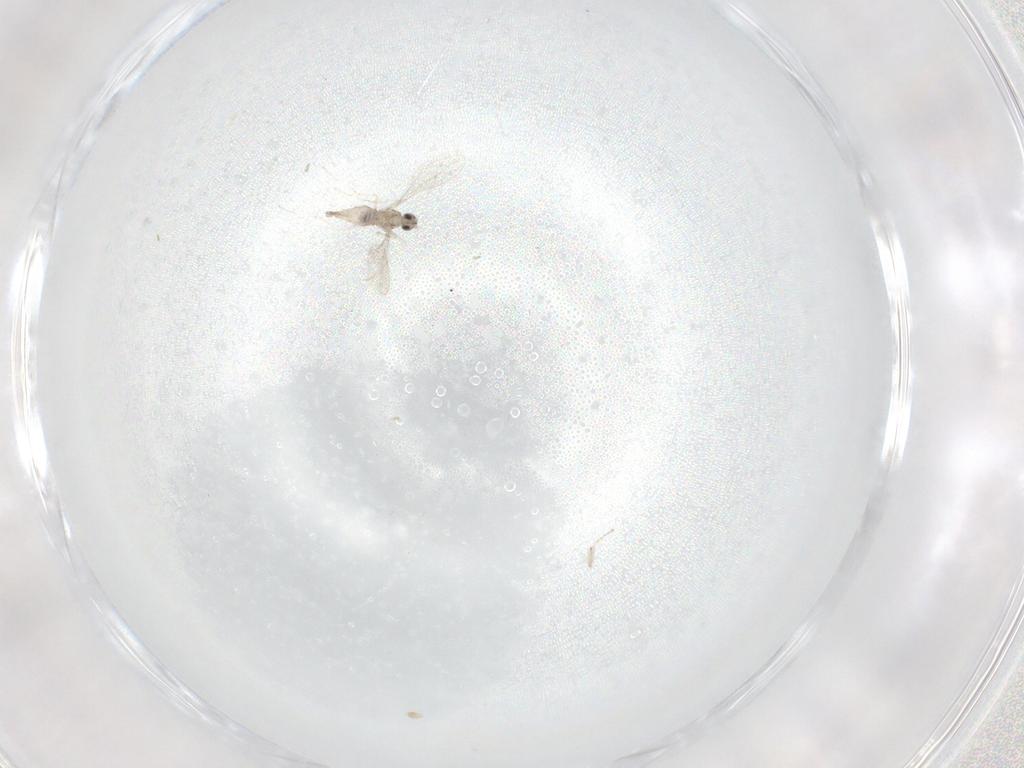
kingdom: Animalia
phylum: Arthropoda
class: Insecta
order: Diptera
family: Cecidomyiidae
